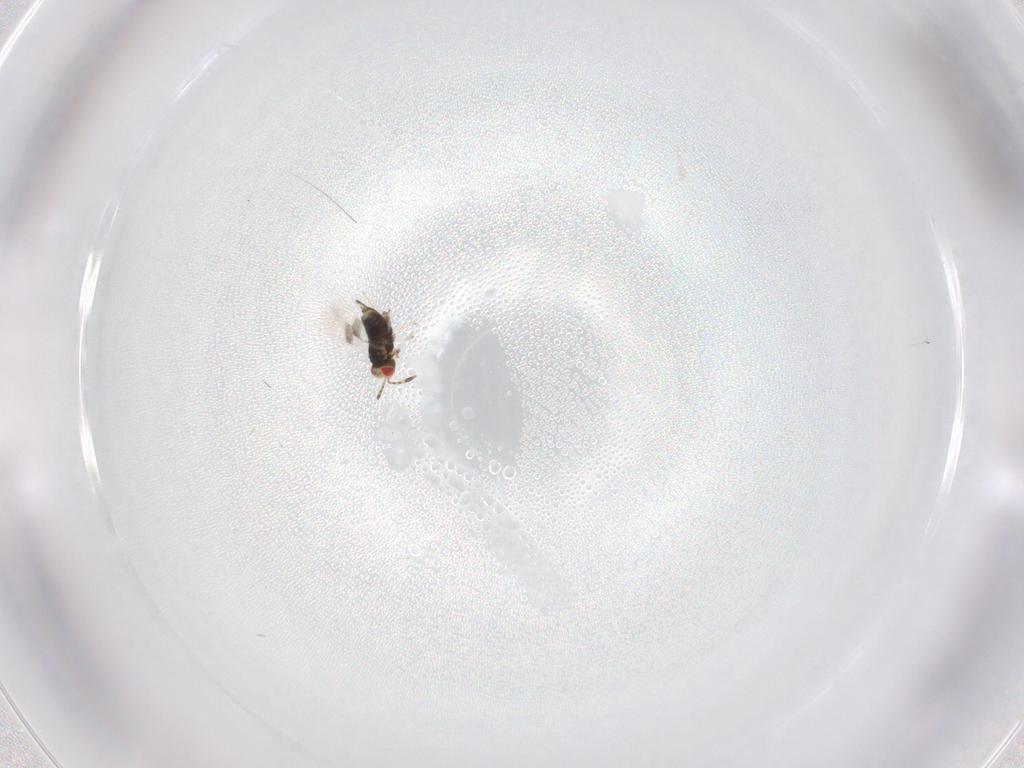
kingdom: Animalia
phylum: Arthropoda
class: Insecta
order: Hymenoptera
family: Azotidae
